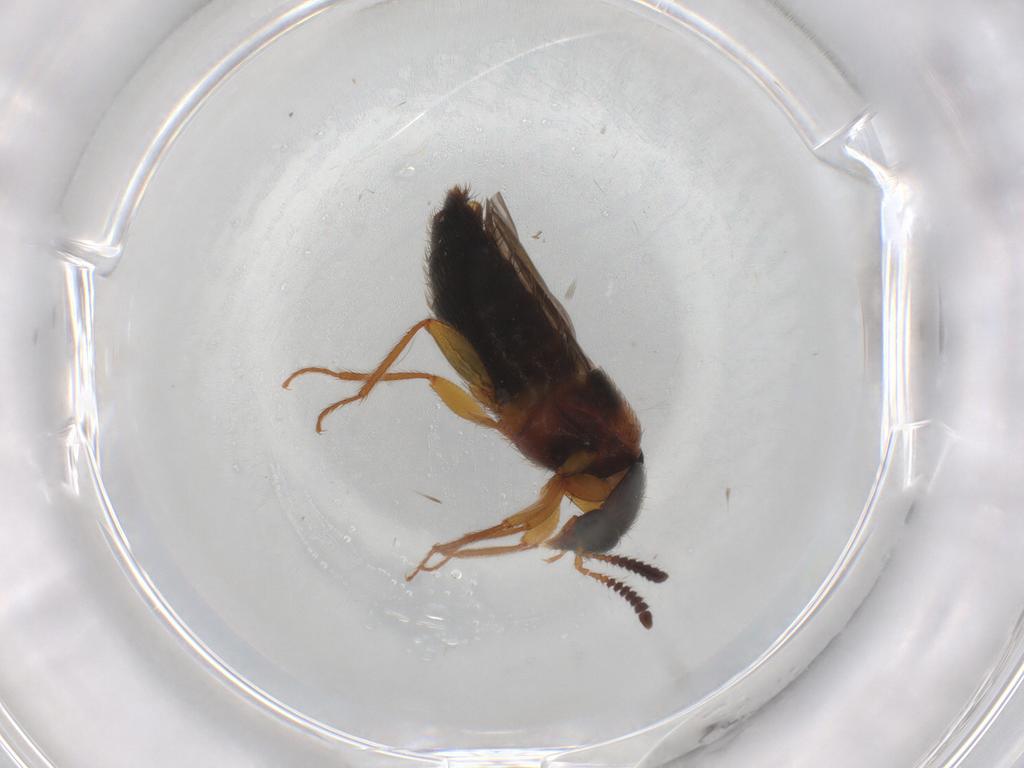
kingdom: Animalia
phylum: Arthropoda
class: Insecta
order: Coleoptera
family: Staphylinidae
